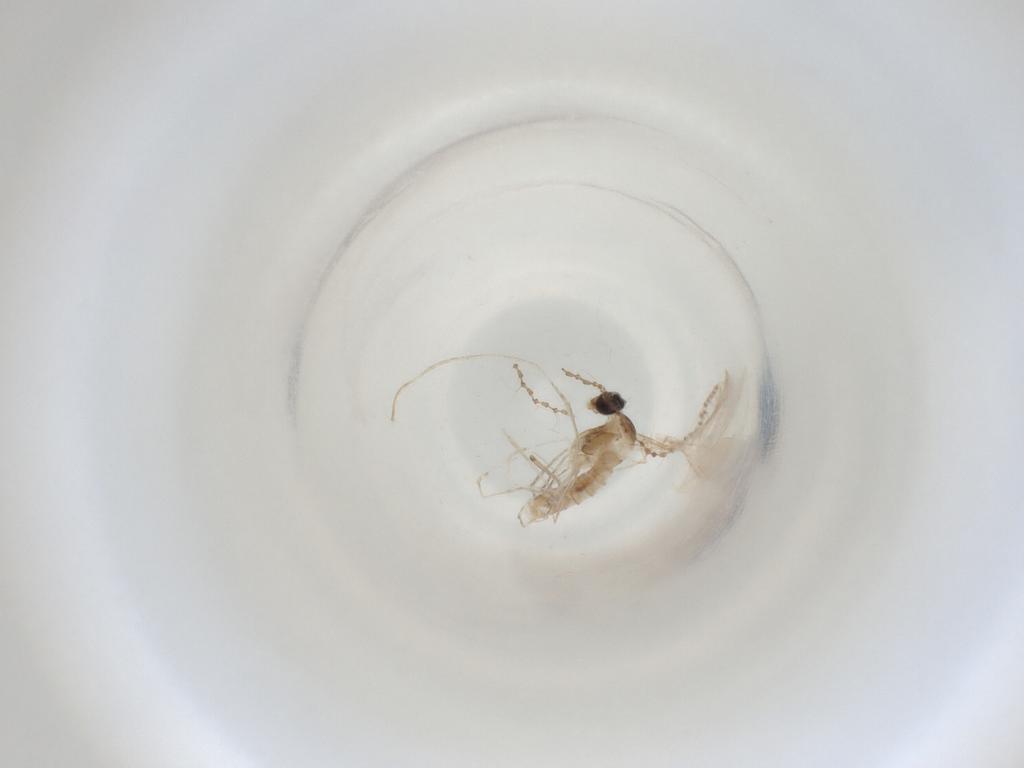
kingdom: Animalia
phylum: Arthropoda
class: Insecta
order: Diptera
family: Cecidomyiidae
